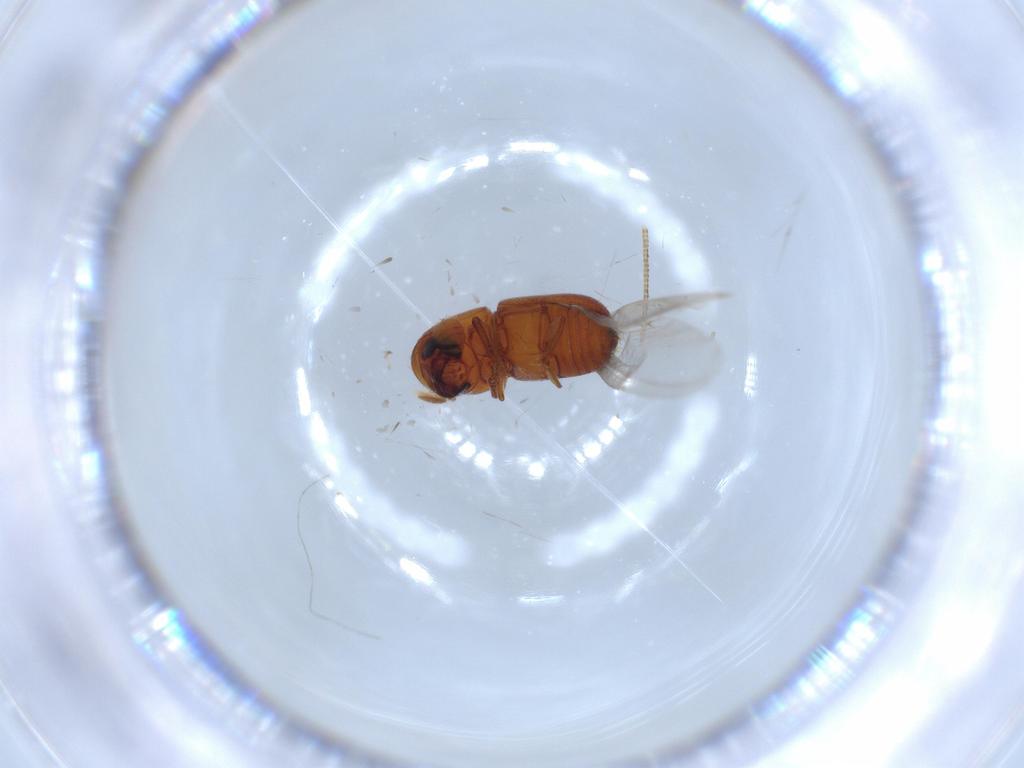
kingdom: Animalia
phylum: Arthropoda
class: Insecta
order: Coleoptera
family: Curculionidae
